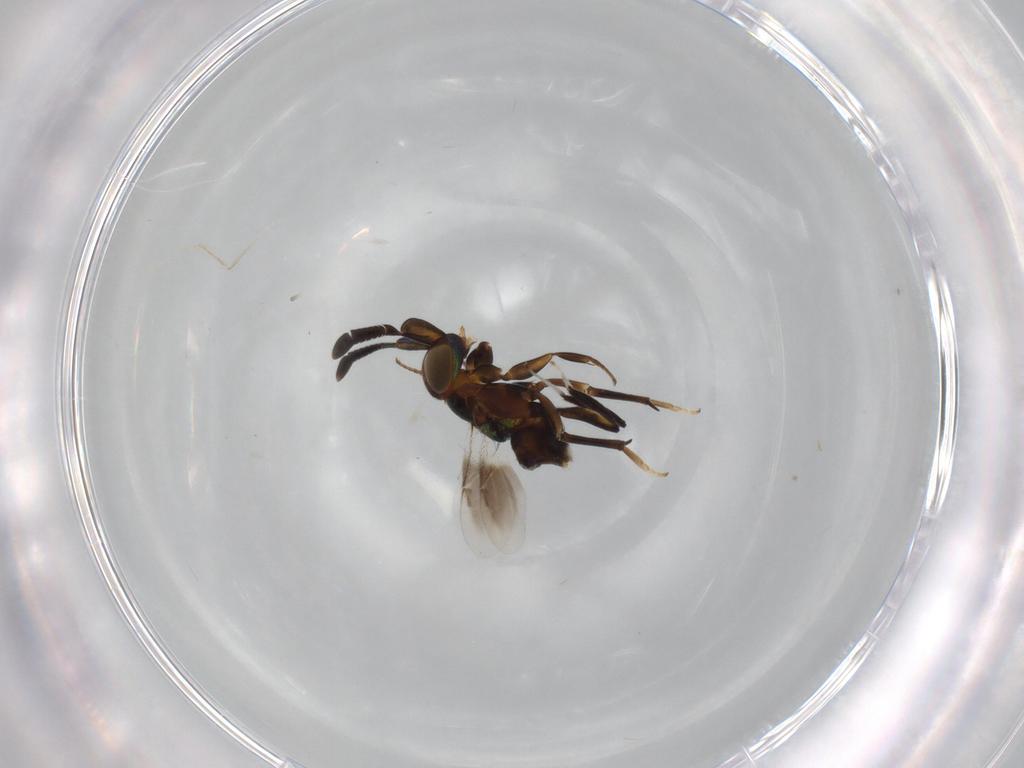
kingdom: Animalia
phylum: Arthropoda
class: Insecta
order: Hymenoptera
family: Encyrtidae
